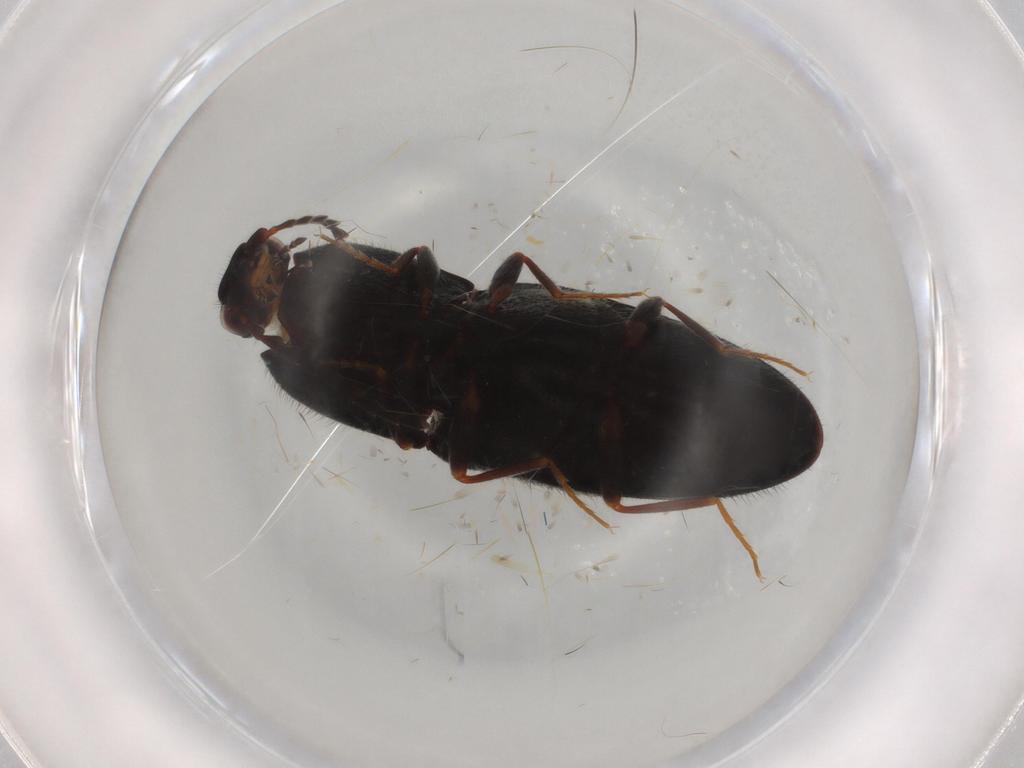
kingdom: Animalia
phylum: Arthropoda
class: Insecta
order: Coleoptera
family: Elateridae
